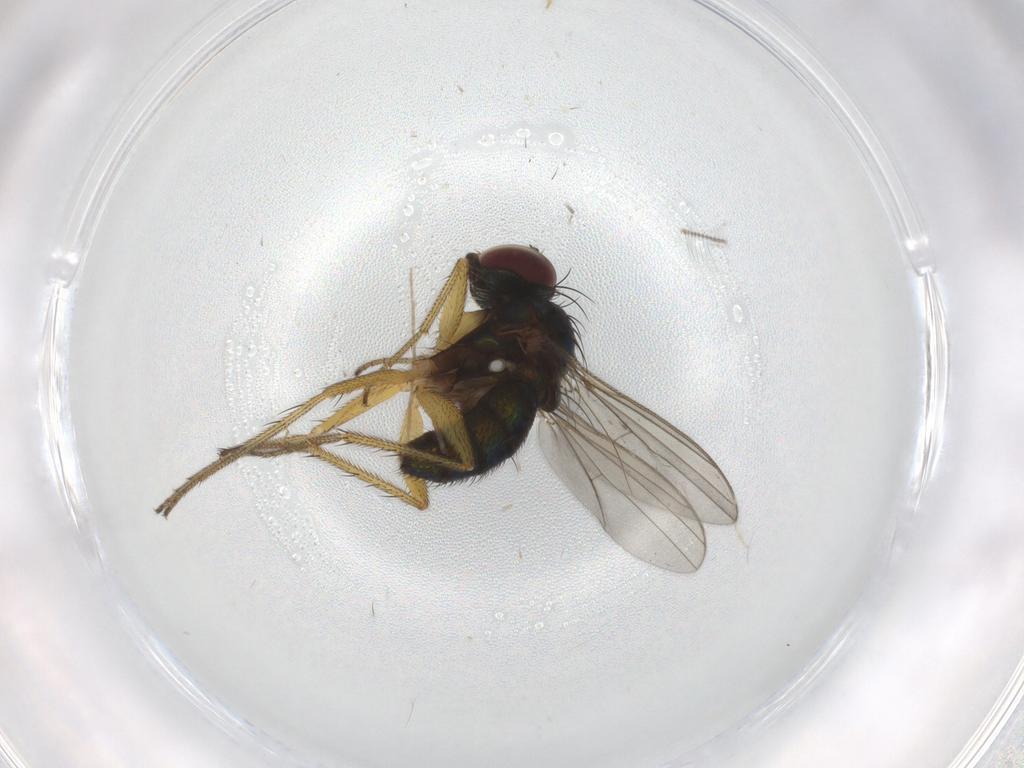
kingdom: Animalia
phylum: Arthropoda
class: Insecta
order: Diptera
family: Chironomidae
